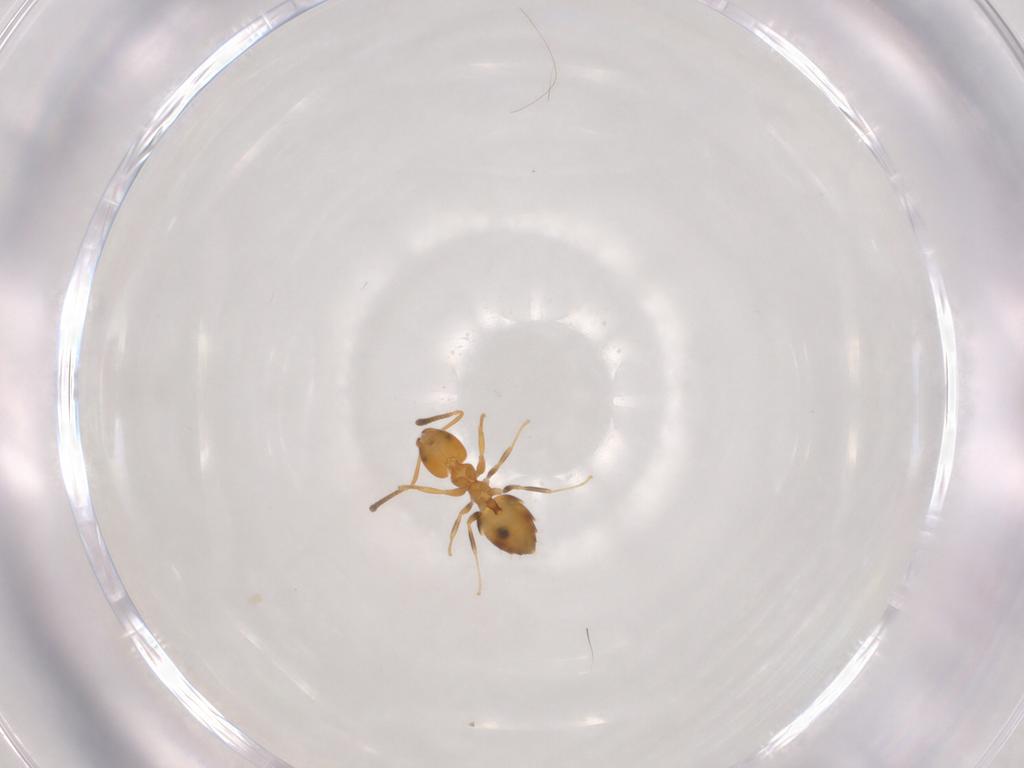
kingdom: Animalia
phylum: Arthropoda
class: Insecta
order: Hymenoptera
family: Formicidae
